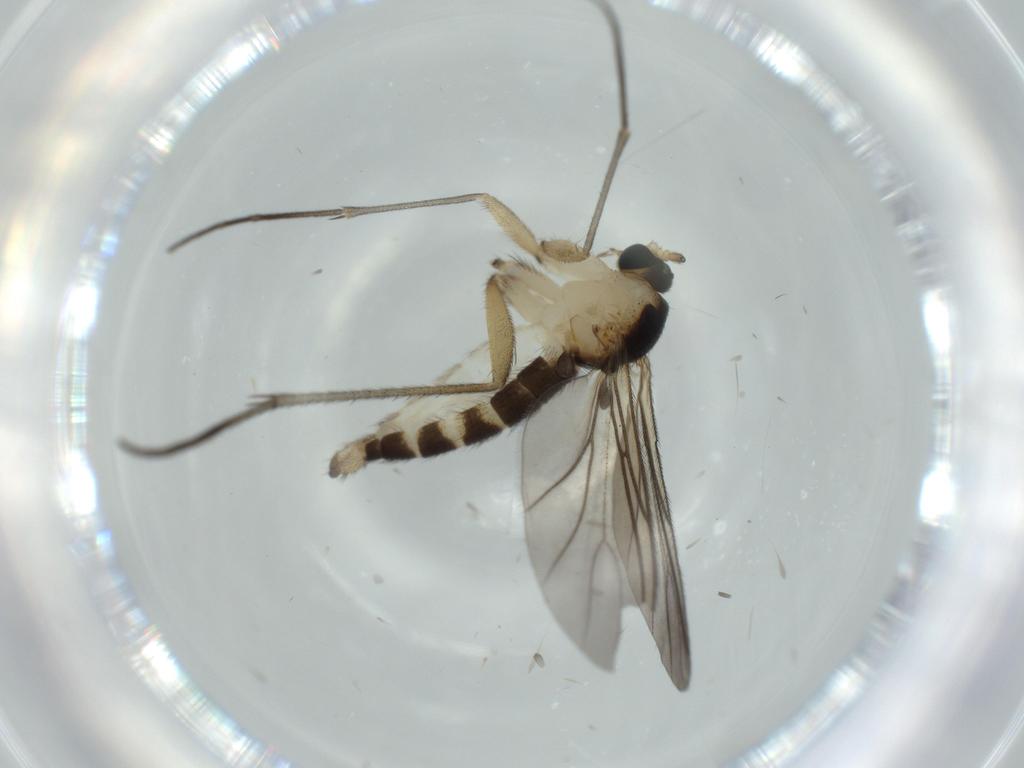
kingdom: Animalia
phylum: Arthropoda
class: Insecta
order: Diptera
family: Sciaridae
